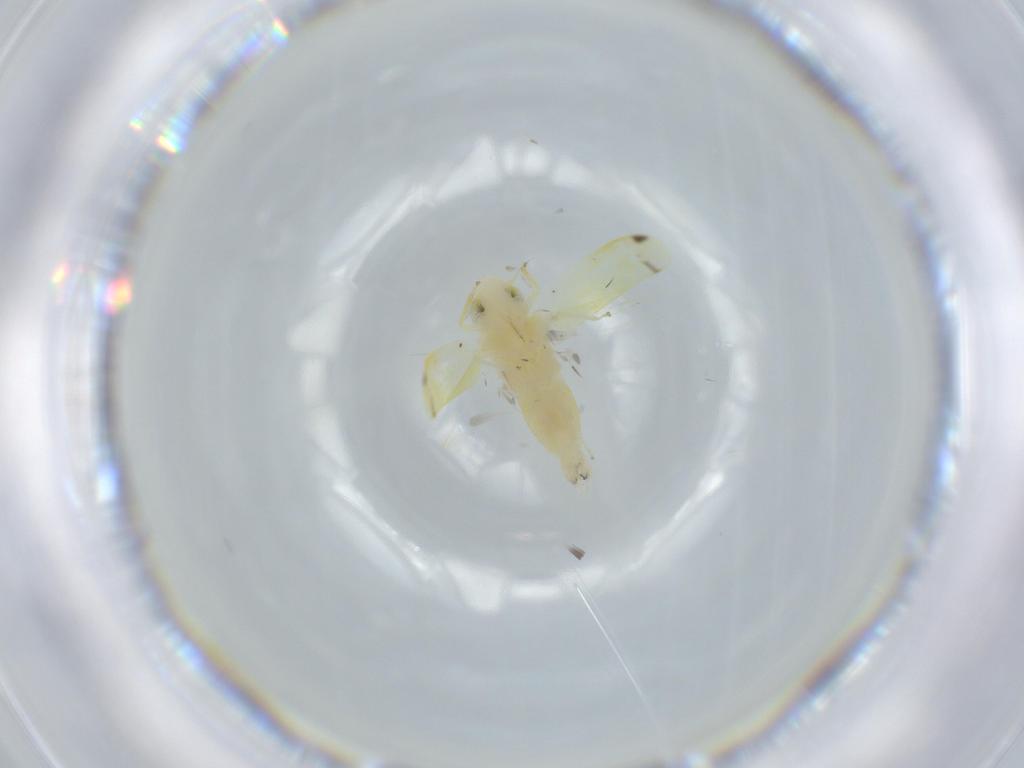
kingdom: Animalia
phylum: Arthropoda
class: Insecta
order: Hemiptera
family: Cicadellidae
